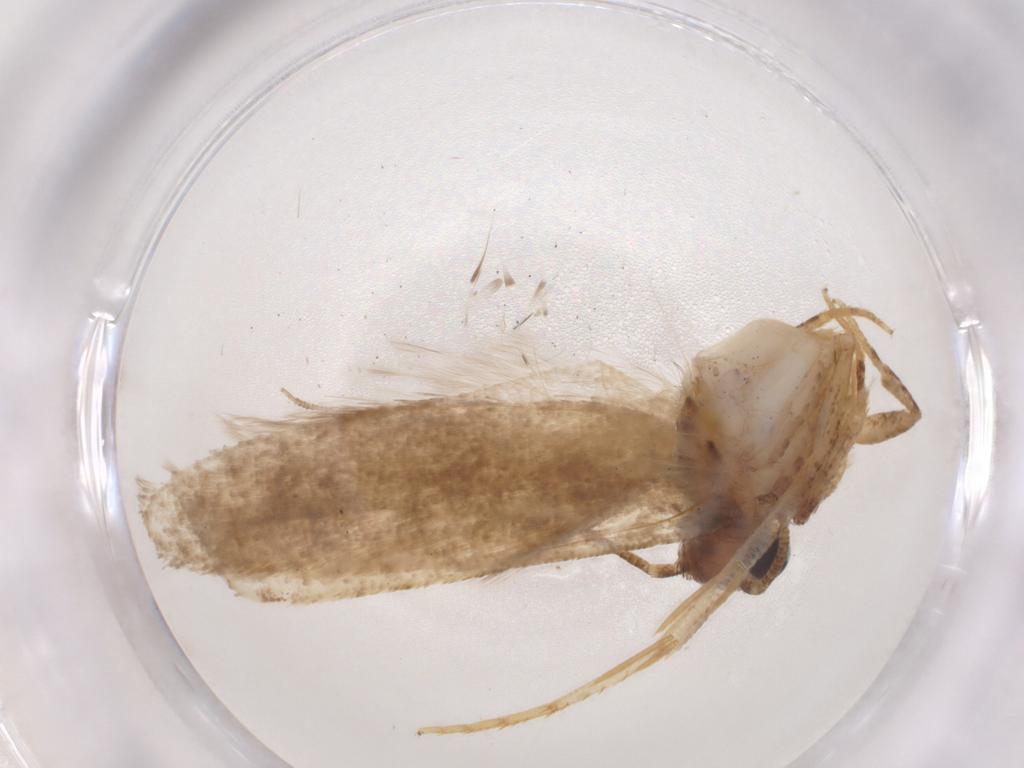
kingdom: Animalia
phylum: Arthropoda
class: Insecta
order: Lepidoptera
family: Gelechiidae
